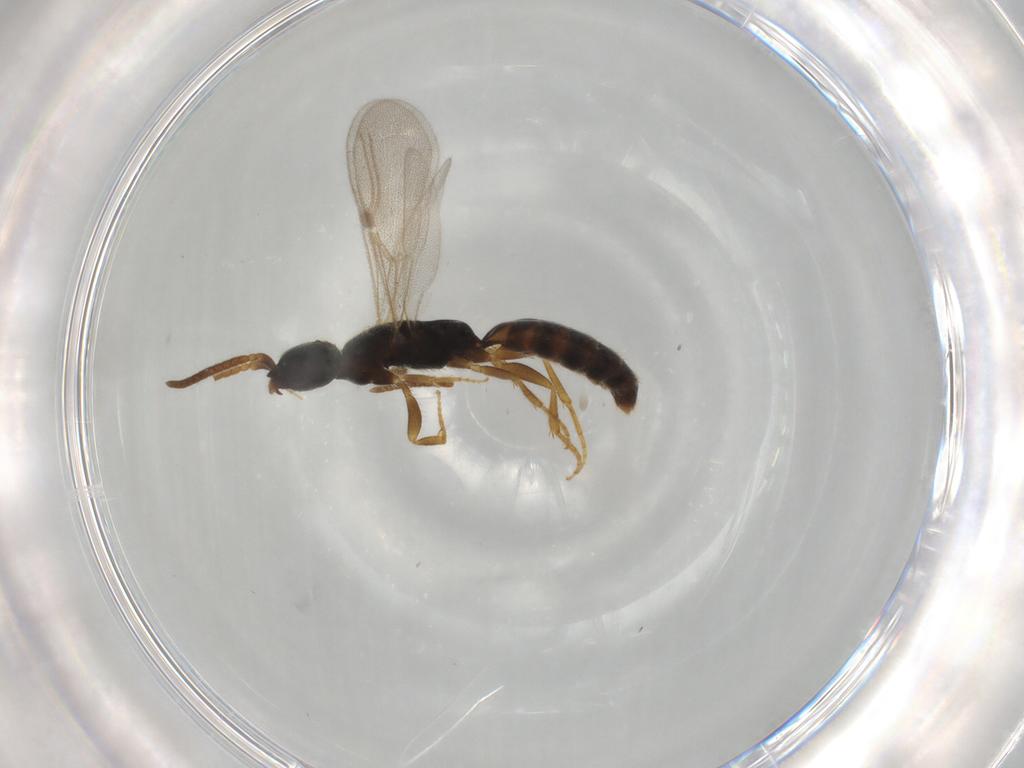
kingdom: Animalia
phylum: Arthropoda
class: Insecta
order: Hymenoptera
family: Bethylidae
